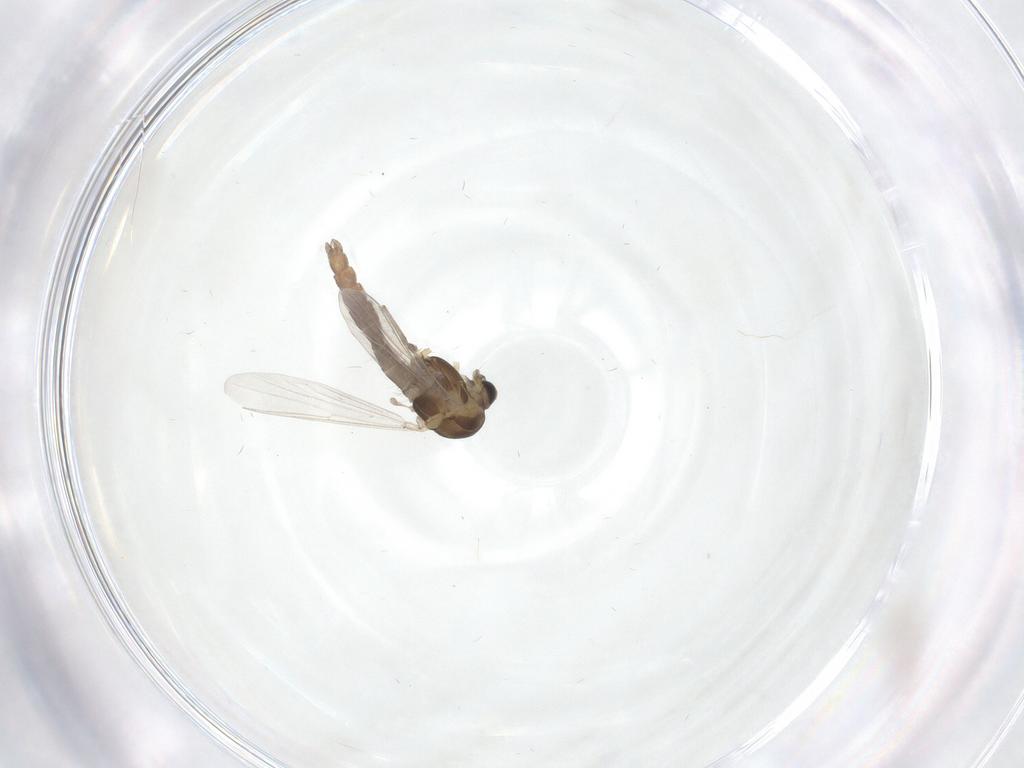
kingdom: Animalia
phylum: Arthropoda
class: Insecta
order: Diptera
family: Chironomidae
